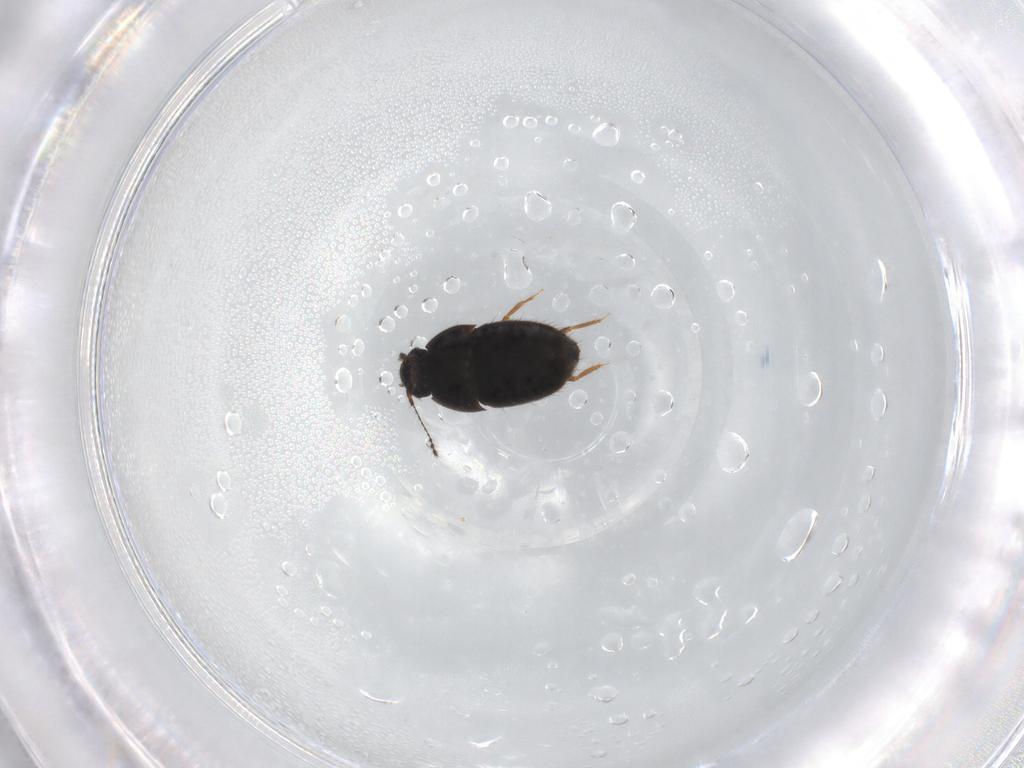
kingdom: Animalia
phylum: Arthropoda
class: Insecta
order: Coleoptera
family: Ptiliidae
